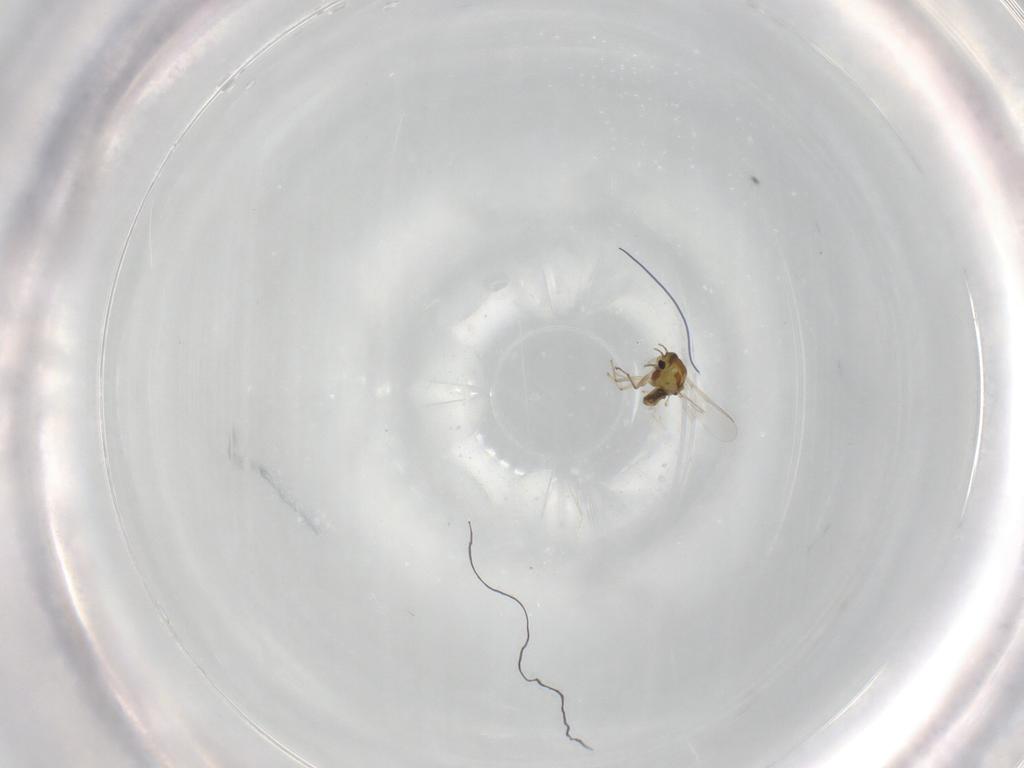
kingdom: Animalia
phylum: Arthropoda
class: Insecta
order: Diptera
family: Chironomidae
